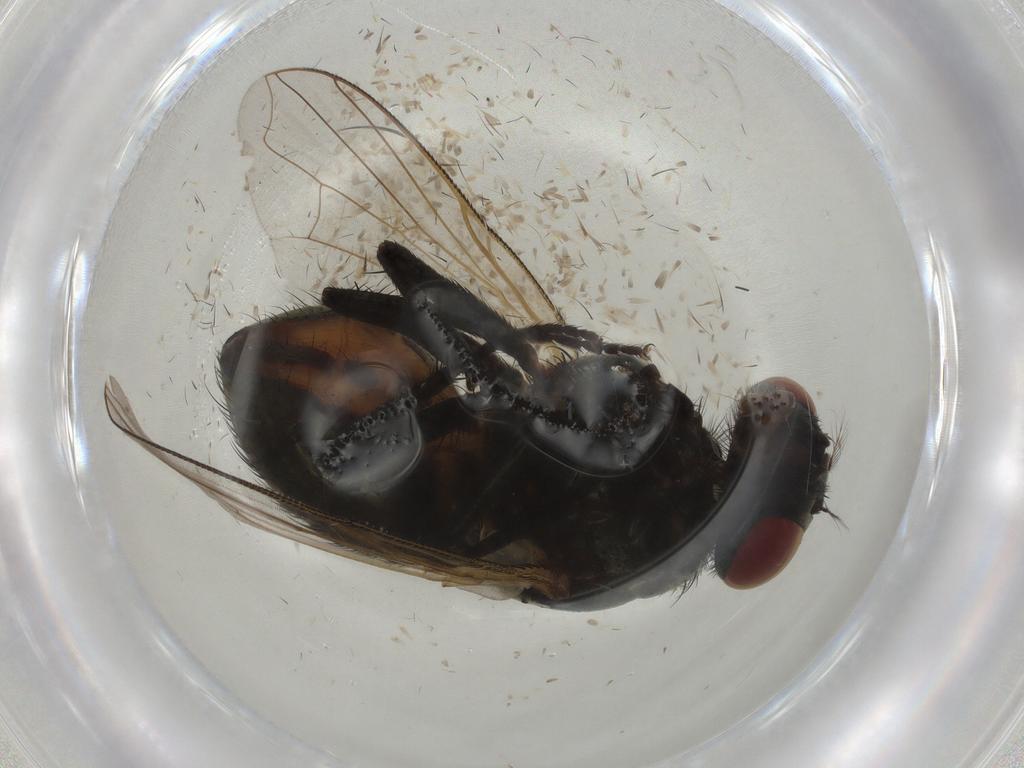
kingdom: Animalia
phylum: Arthropoda
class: Insecta
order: Diptera
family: Muscidae
